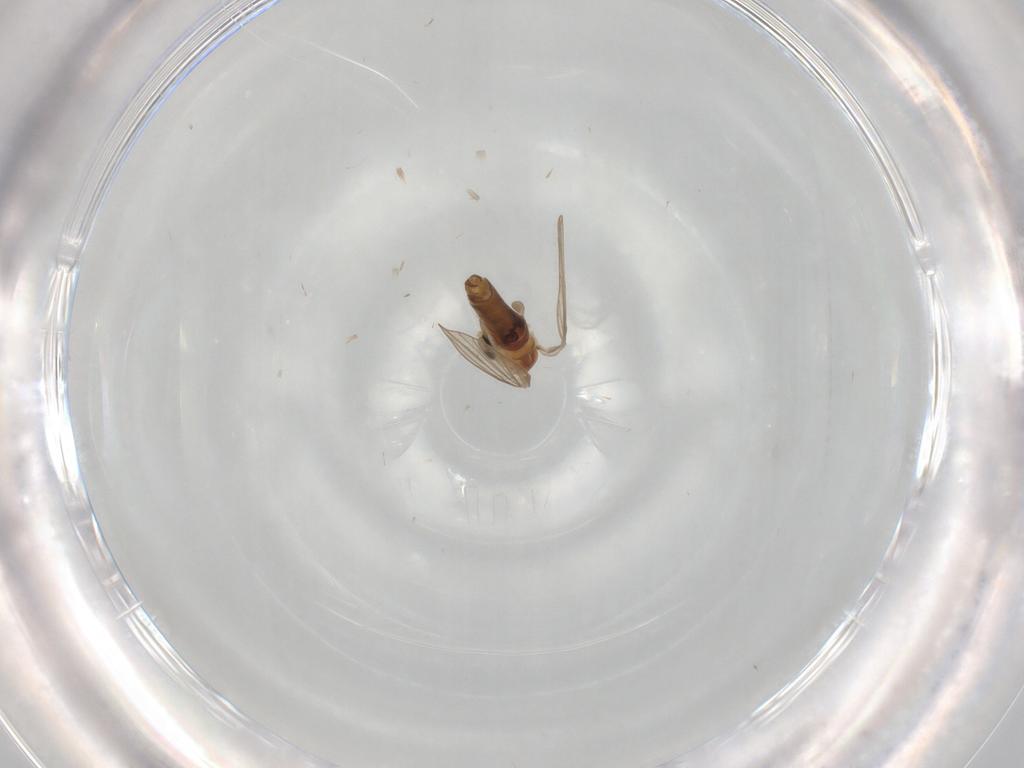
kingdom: Animalia
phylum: Arthropoda
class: Insecta
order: Diptera
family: Psychodidae
